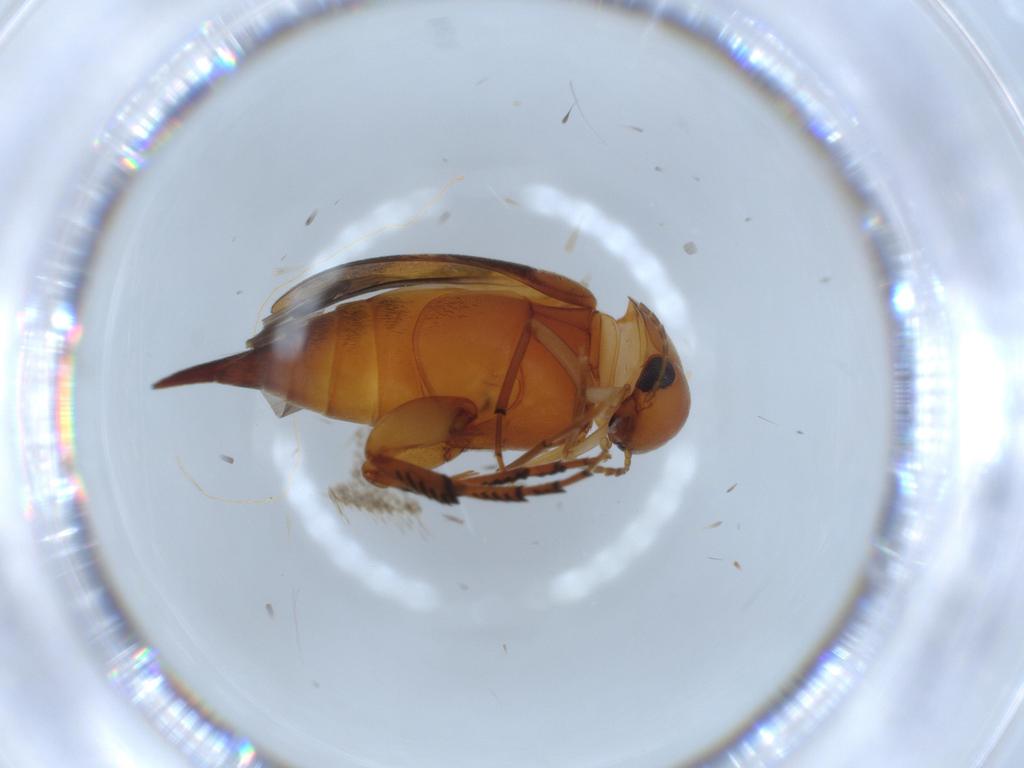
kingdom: Animalia
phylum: Arthropoda
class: Insecta
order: Coleoptera
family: Mordellidae
